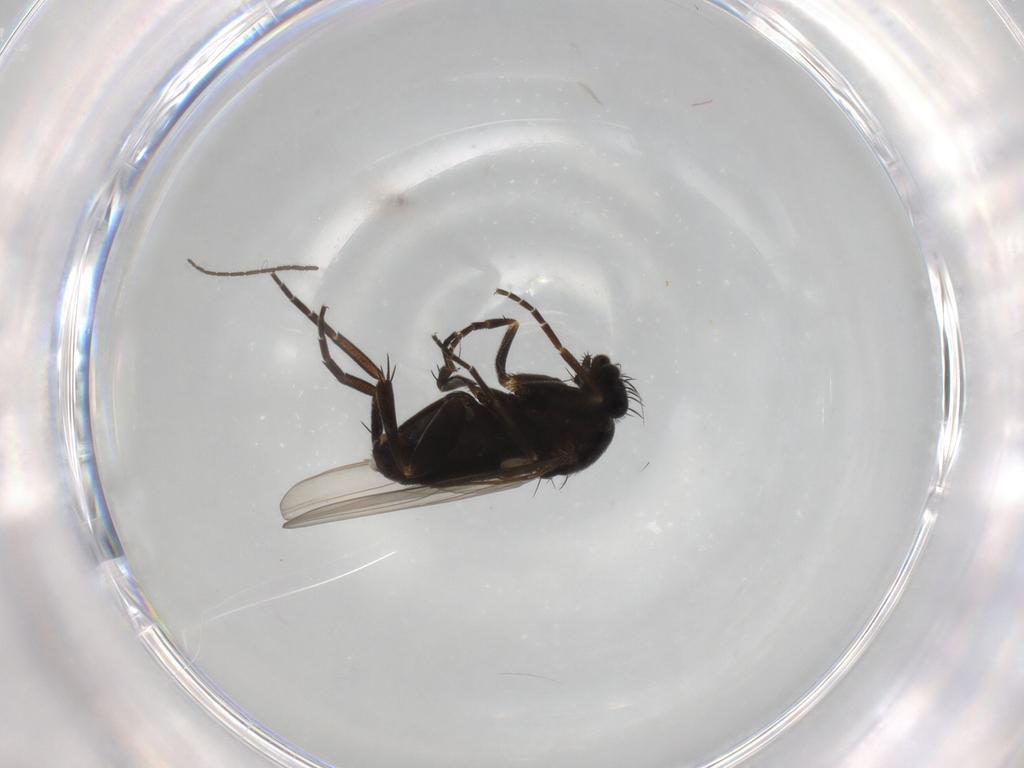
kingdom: Animalia
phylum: Arthropoda
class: Insecta
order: Diptera
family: Phoridae
